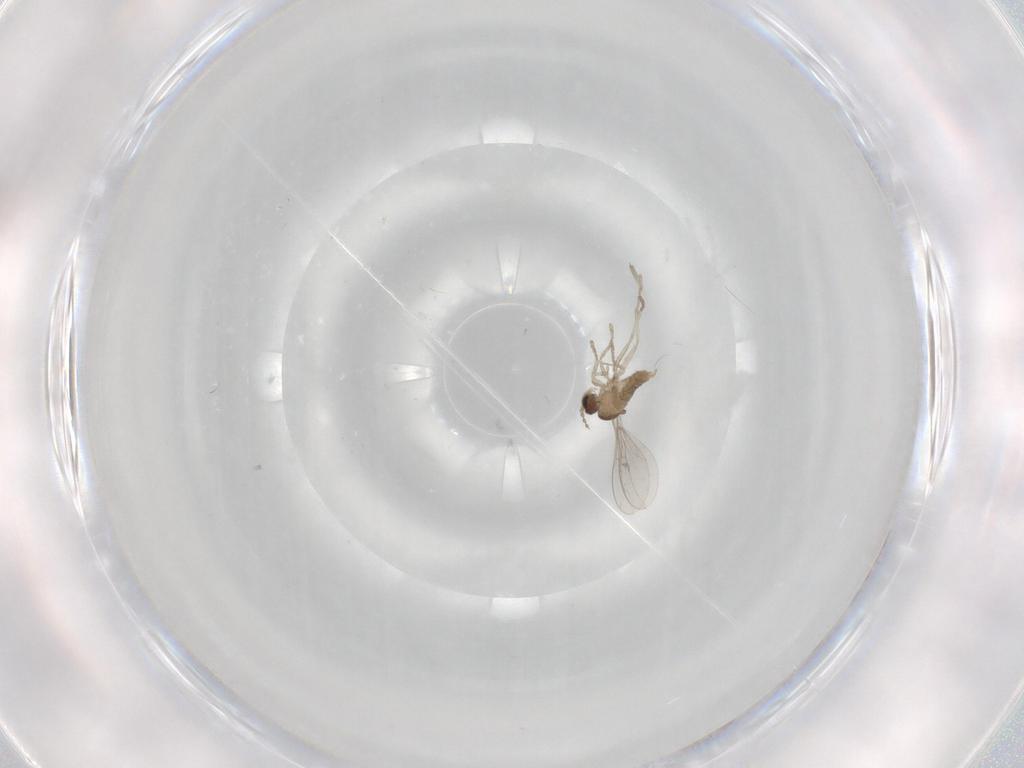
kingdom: Animalia
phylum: Arthropoda
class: Insecta
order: Diptera
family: Cecidomyiidae
